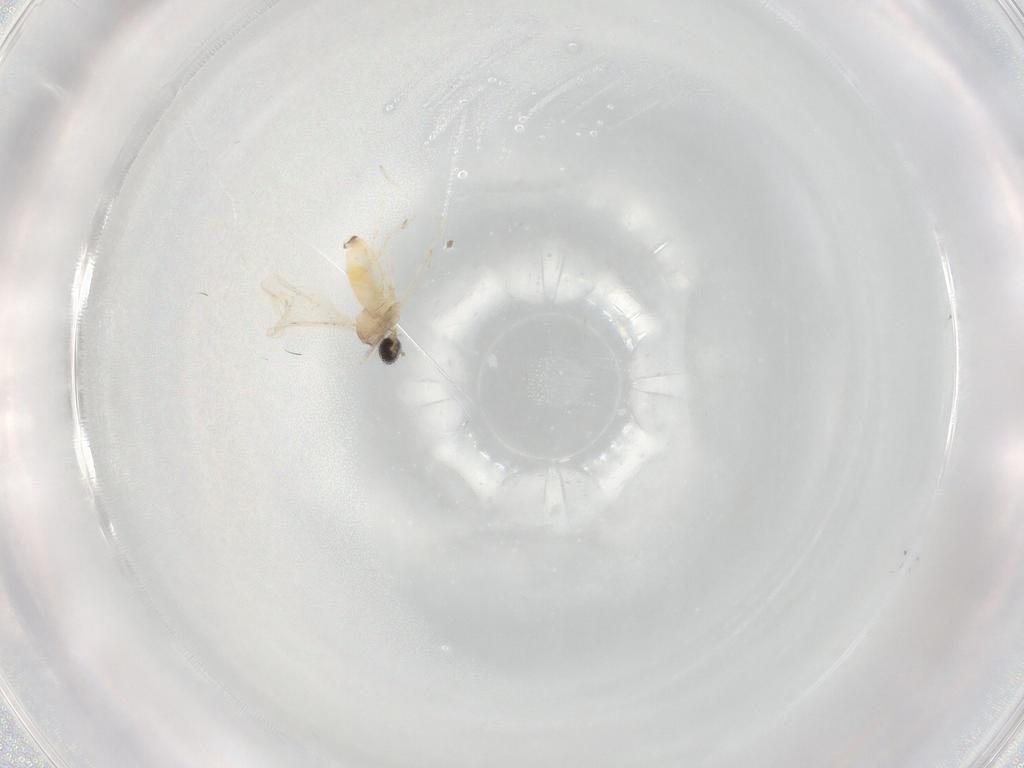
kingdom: Animalia
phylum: Arthropoda
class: Insecta
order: Diptera
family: Cecidomyiidae
